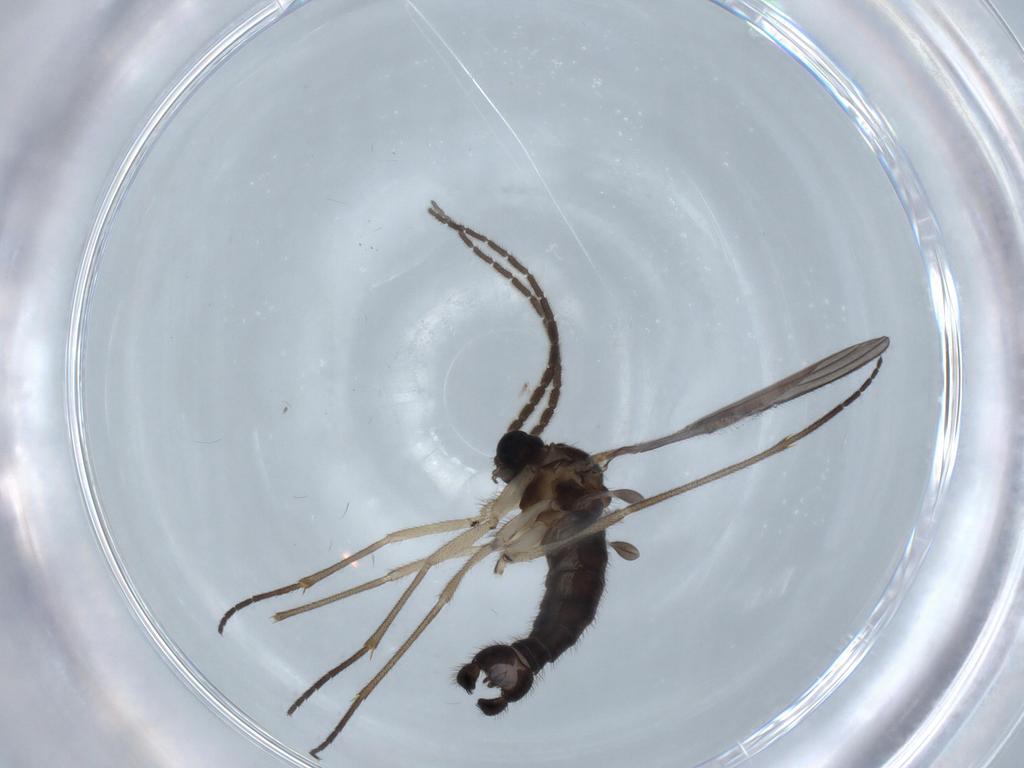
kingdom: Animalia
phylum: Arthropoda
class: Insecta
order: Diptera
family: Sciaridae
